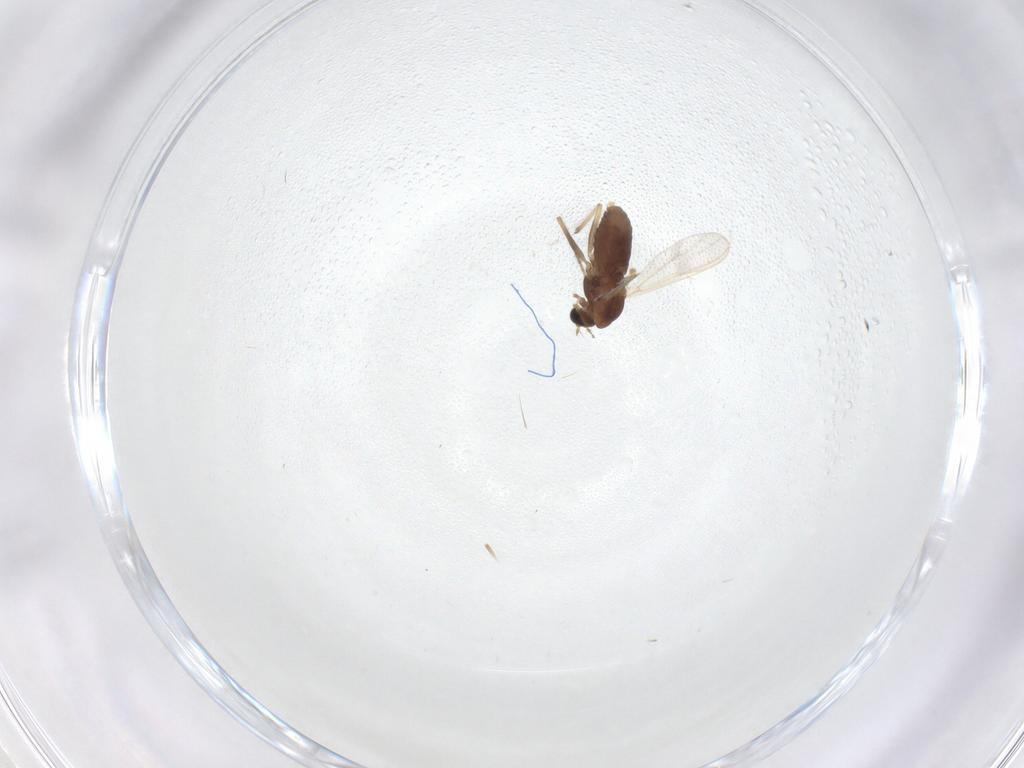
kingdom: Animalia
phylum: Arthropoda
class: Insecta
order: Diptera
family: Chironomidae
